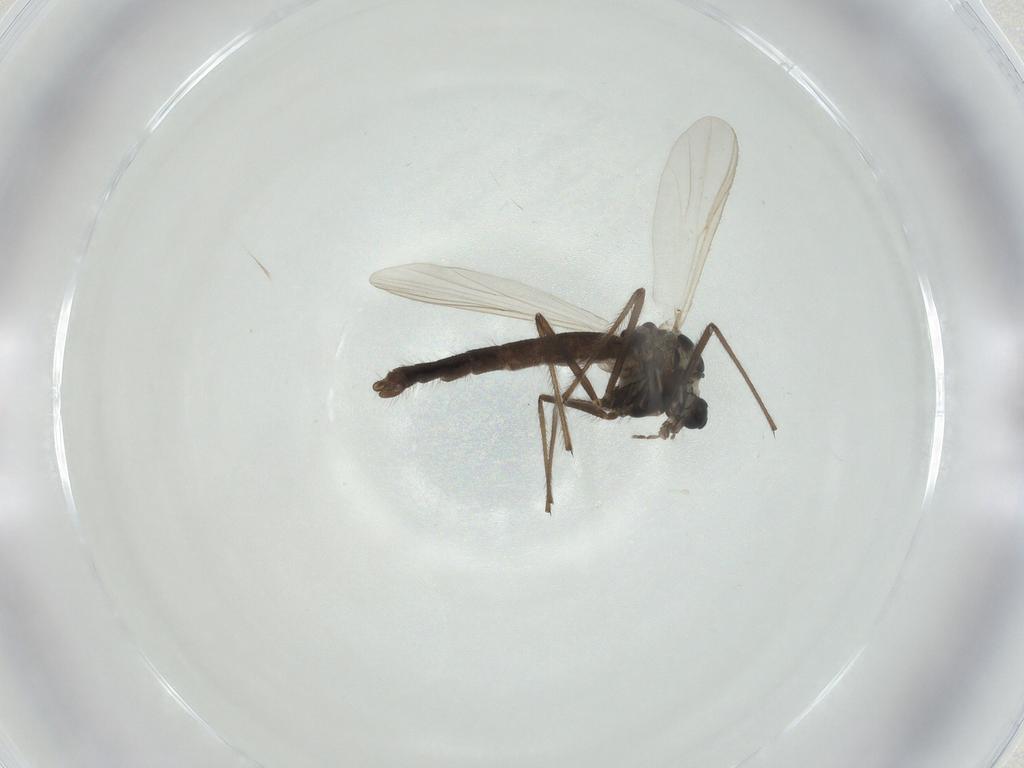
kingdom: Animalia
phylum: Arthropoda
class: Insecta
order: Diptera
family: Chironomidae
